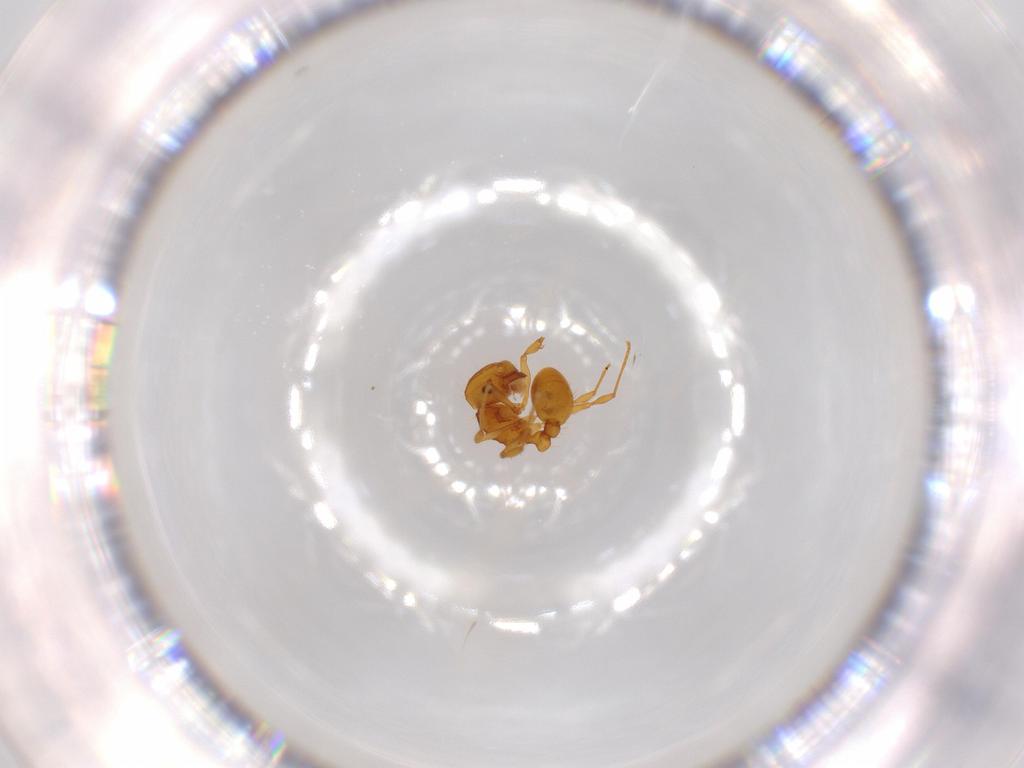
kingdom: Animalia
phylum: Arthropoda
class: Insecta
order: Hymenoptera
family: Formicidae
